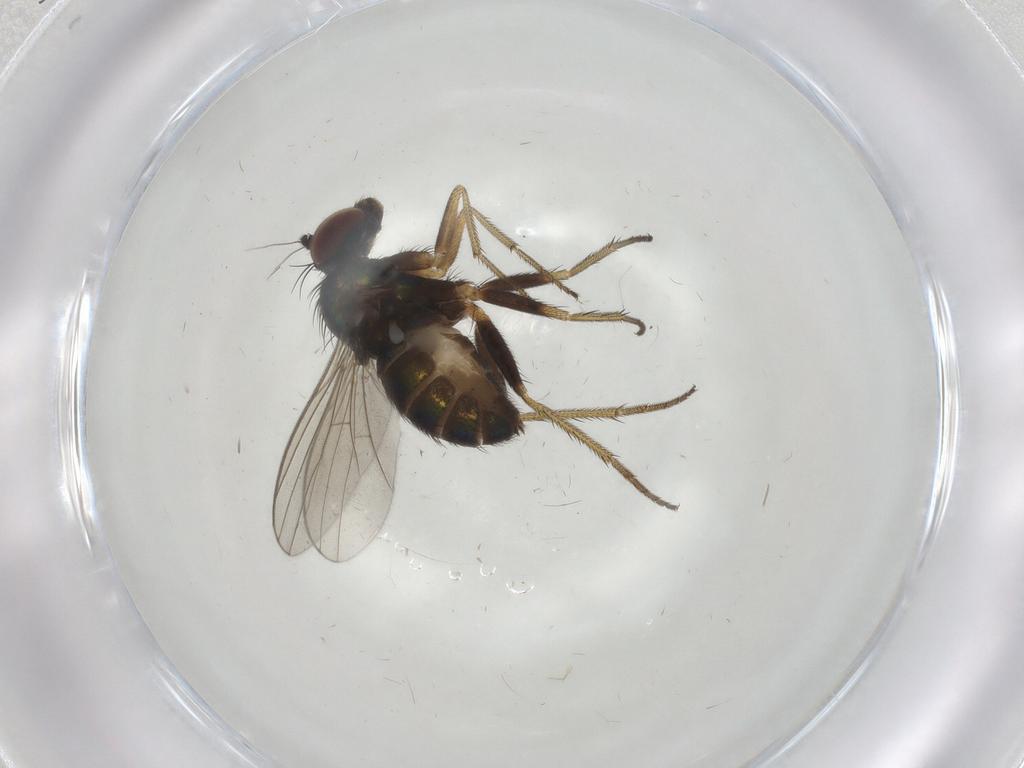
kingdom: Animalia
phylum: Arthropoda
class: Insecta
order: Diptera
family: Dolichopodidae
